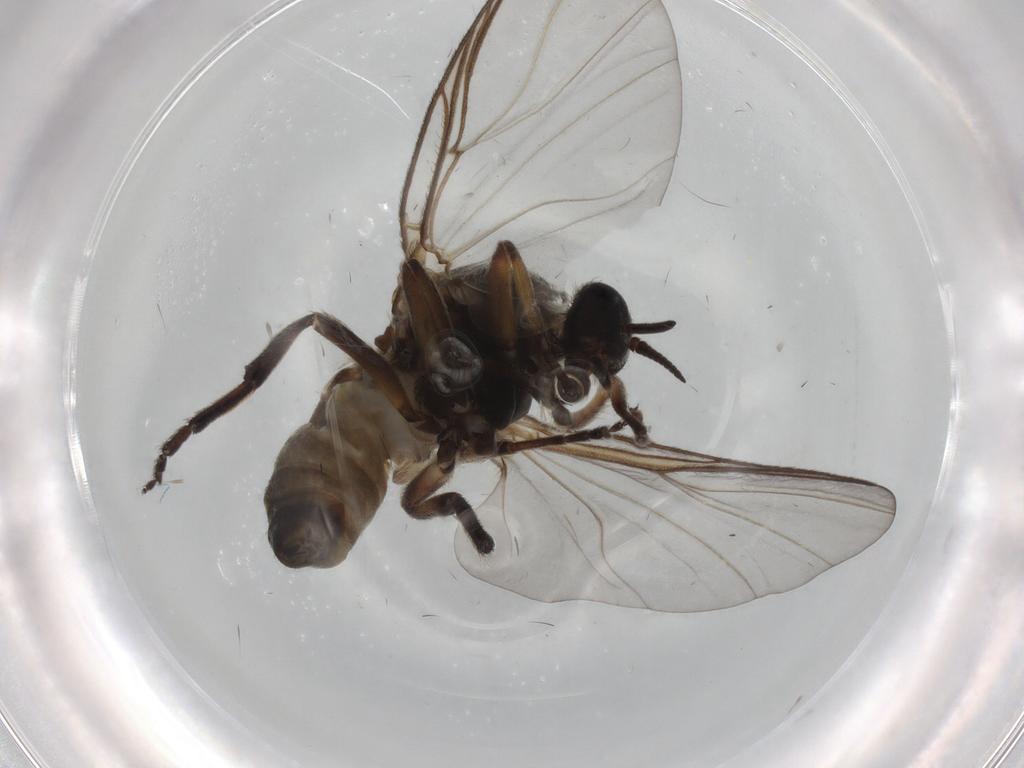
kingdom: Animalia
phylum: Arthropoda
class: Insecta
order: Diptera
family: Simuliidae
